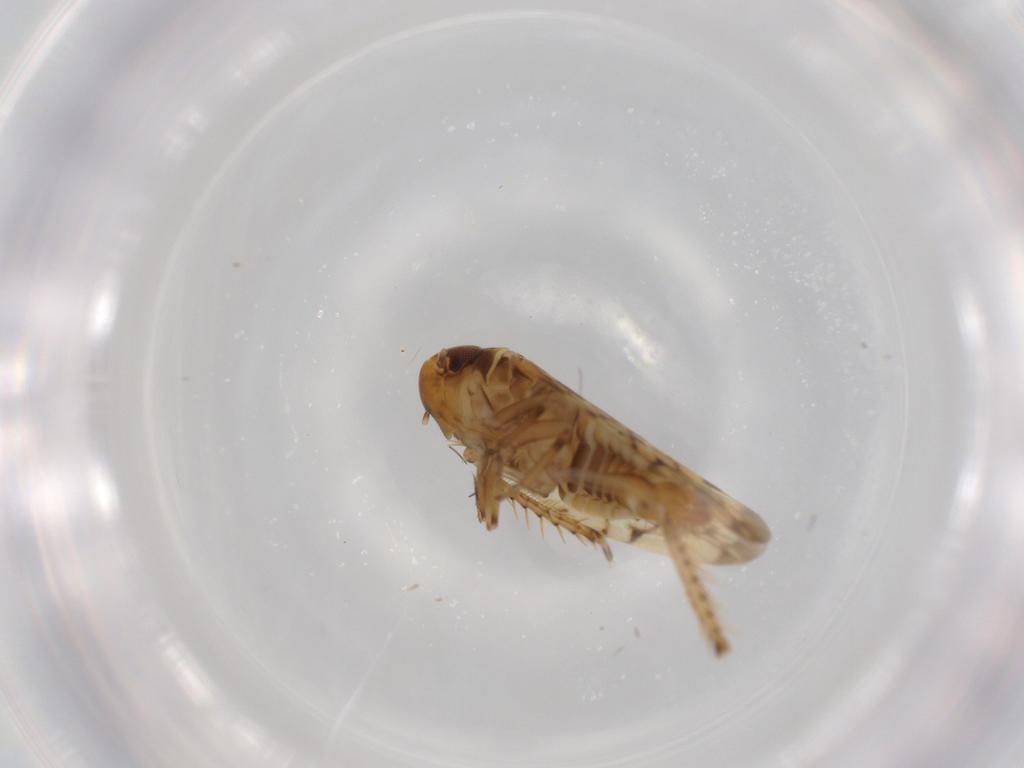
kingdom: Animalia
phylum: Arthropoda
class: Insecta
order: Hemiptera
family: Cicadellidae
